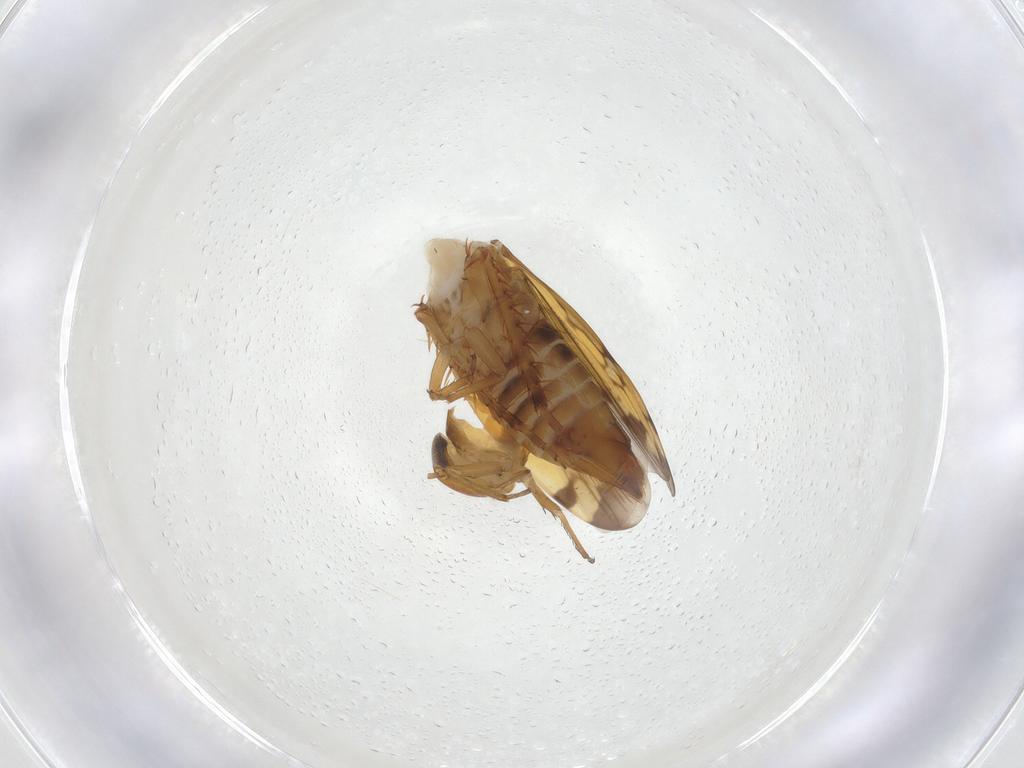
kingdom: Animalia
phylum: Arthropoda
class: Insecta
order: Hemiptera
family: Cicadellidae
